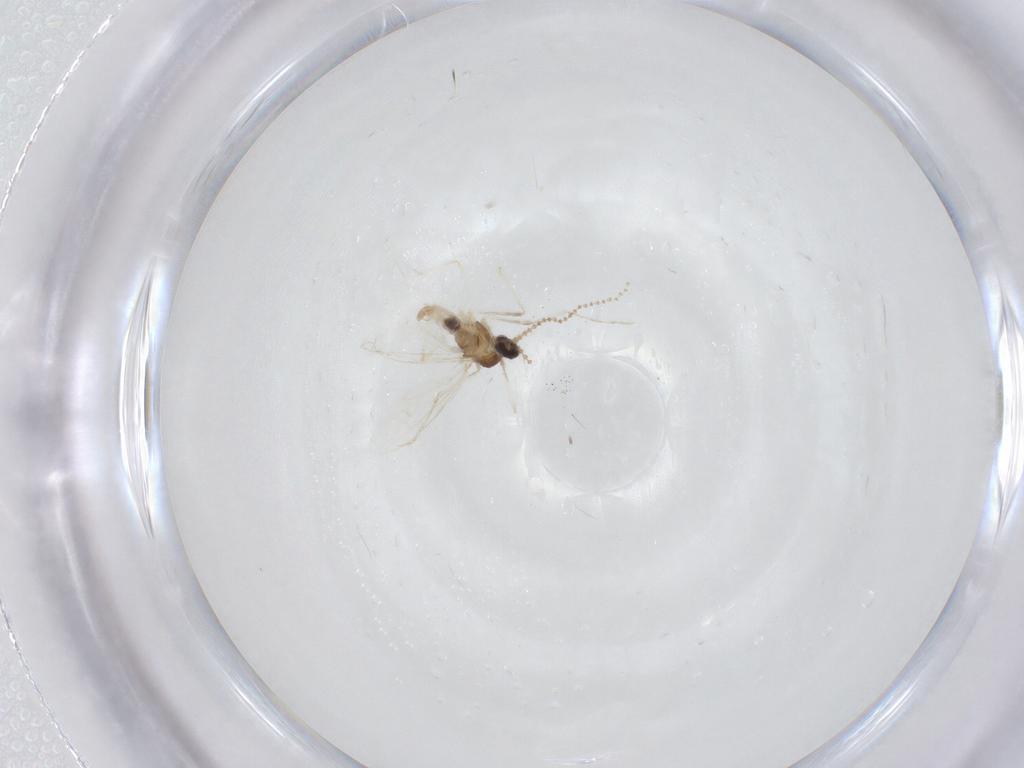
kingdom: Animalia
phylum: Arthropoda
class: Insecta
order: Diptera
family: Cecidomyiidae
